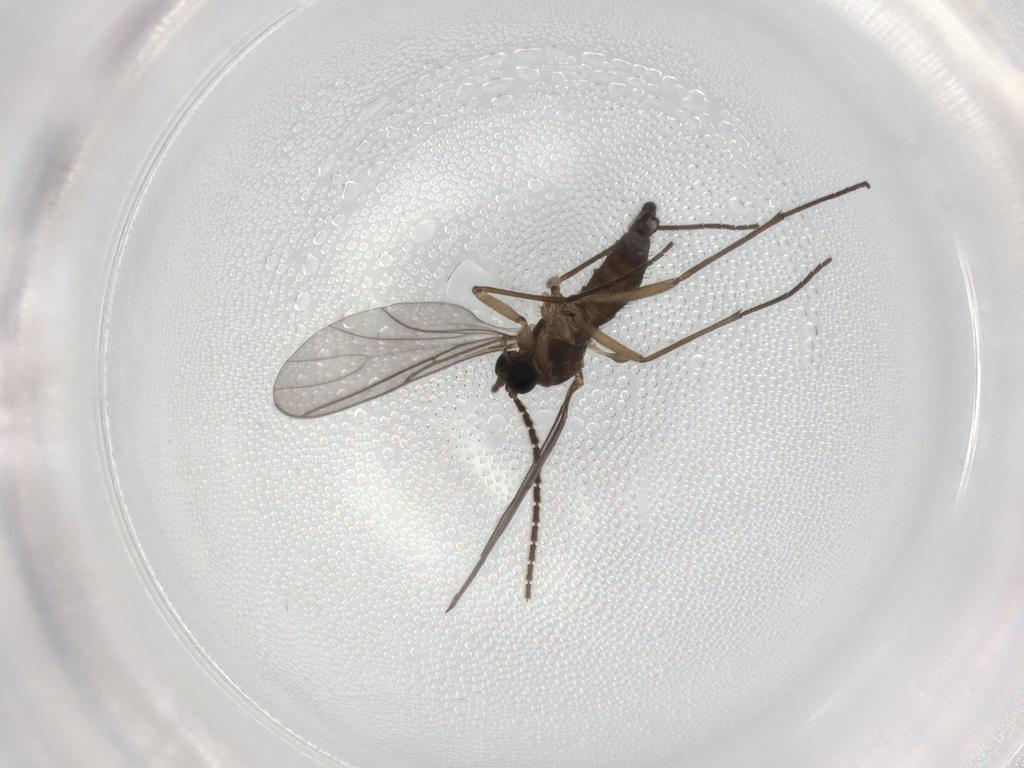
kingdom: Animalia
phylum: Arthropoda
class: Insecta
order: Diptera
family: Sciaridae
